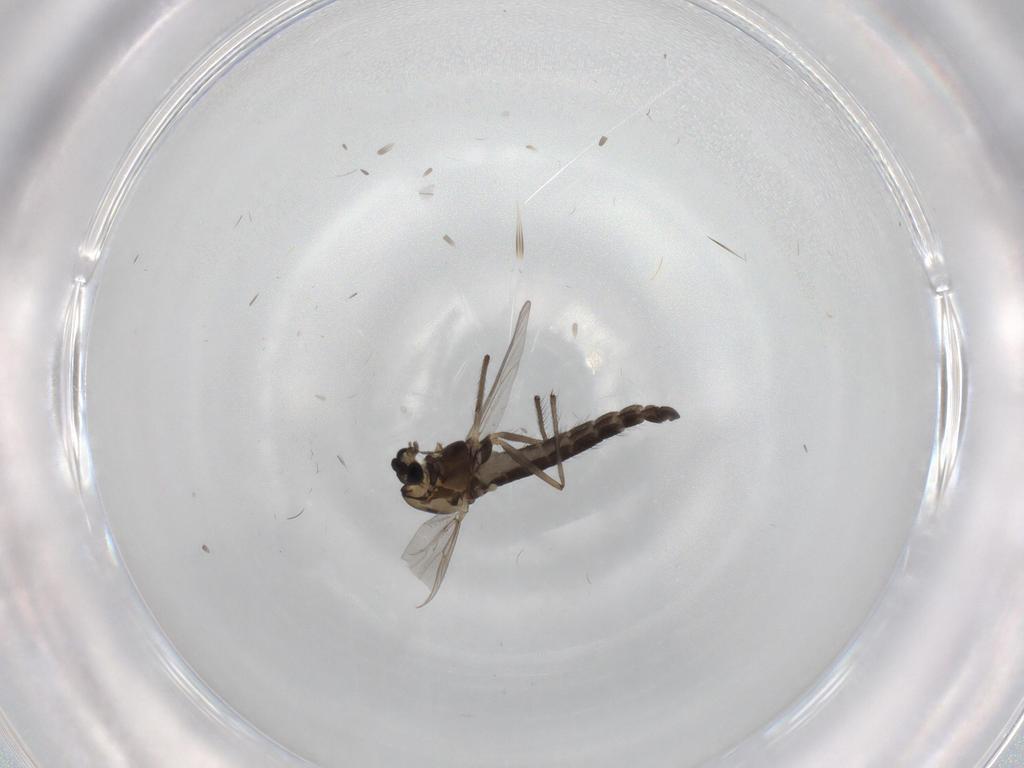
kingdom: Animalia
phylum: Arthropoda
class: Insecta
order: Diptera
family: Chironomidae
